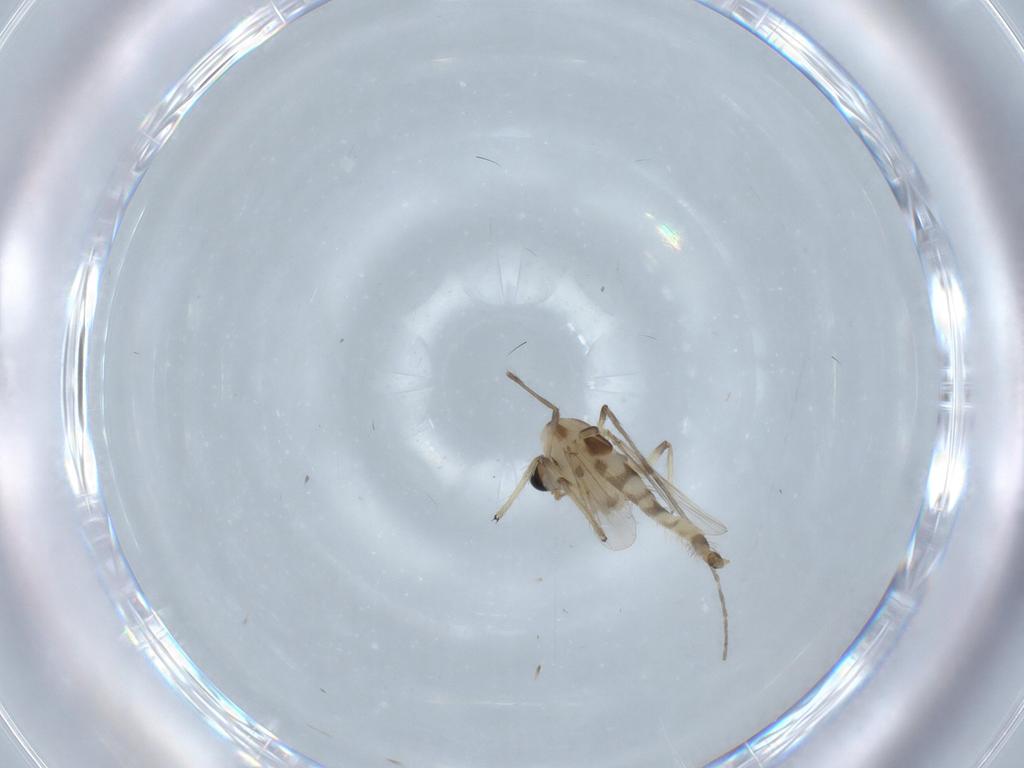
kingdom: Animalia
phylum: Arthropoda
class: Insecta
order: Diptera
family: Chironomidae
